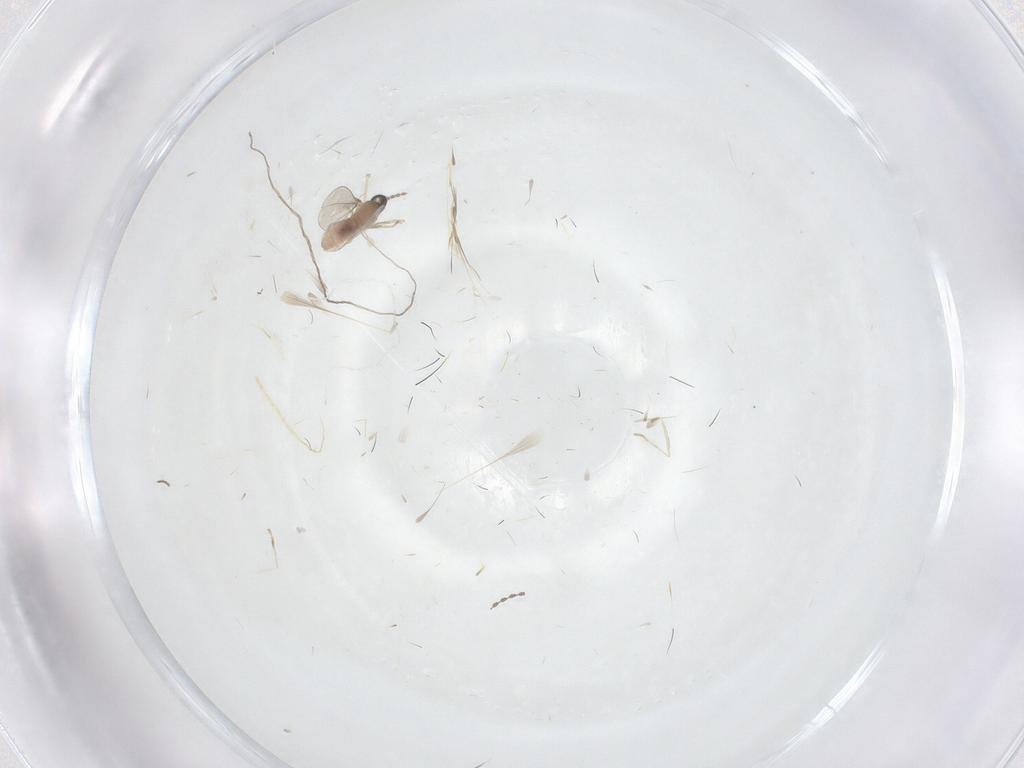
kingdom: Animalia
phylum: Arthropoda
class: Insecta
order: Diptera
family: Cecidomyiidae
